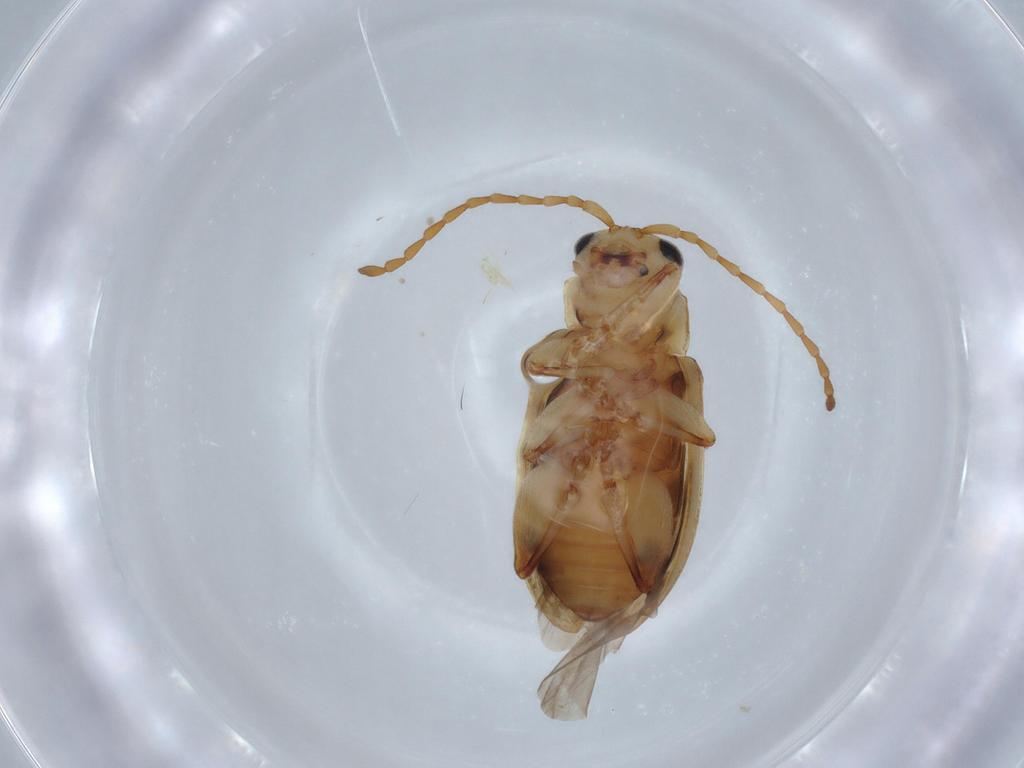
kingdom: Animalia
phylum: Arthropoda
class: Insecta
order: Coleoptera
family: Chrysomelidae
